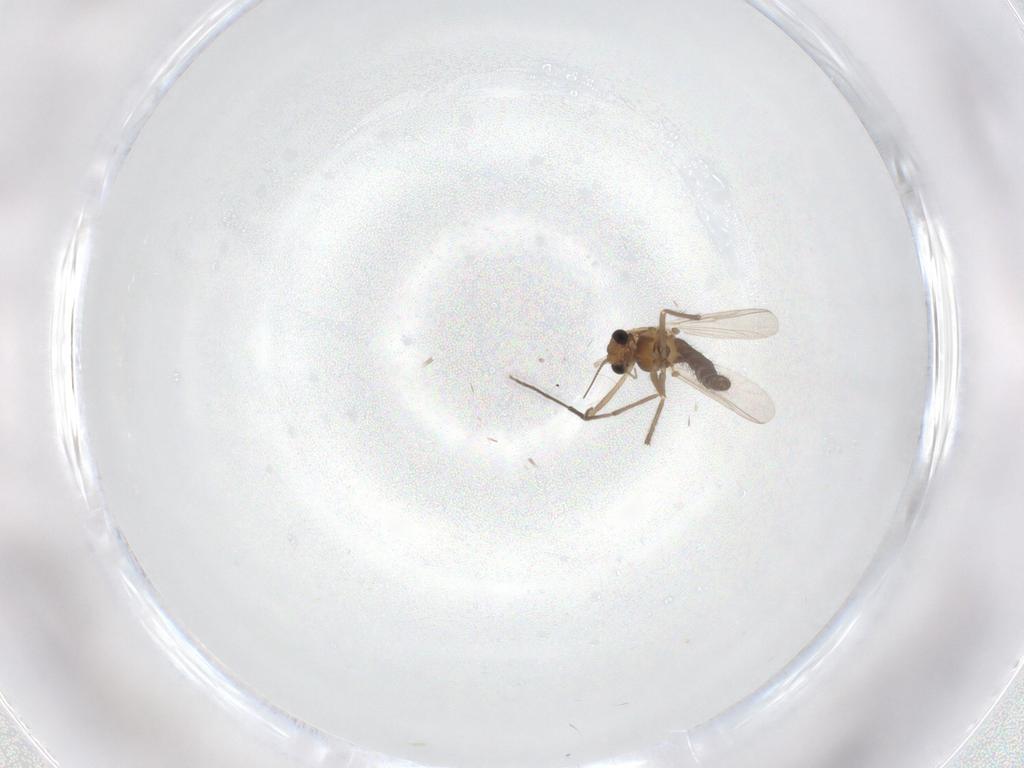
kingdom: Animalia
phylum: Arthropoda
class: Insecta
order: Diptera
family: Chironomidae
